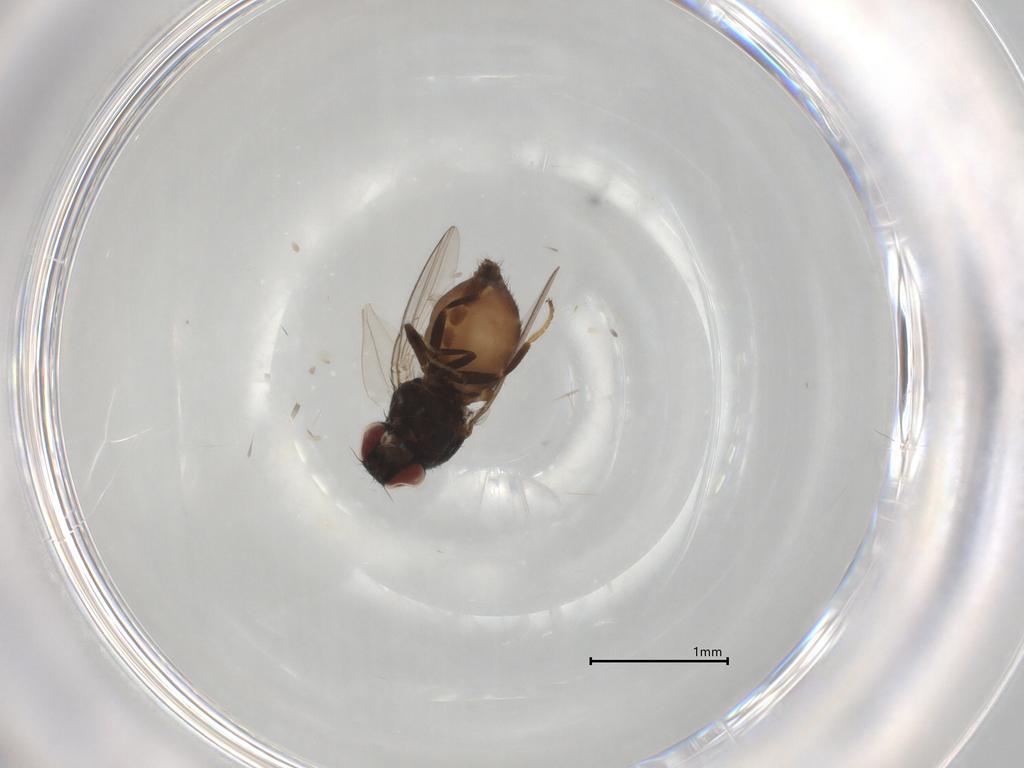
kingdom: Animalia
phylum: Arthropoda
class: Insecta
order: Diptera
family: Milichiidae
